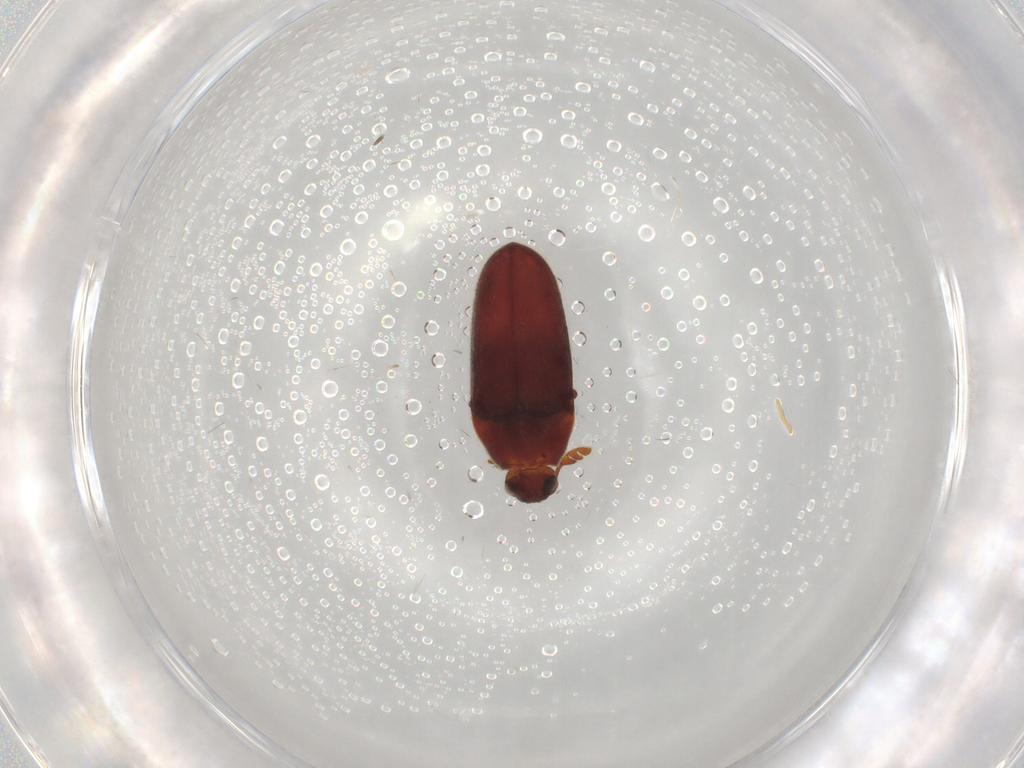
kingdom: Animalia
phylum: Arthropoda
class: Insecta
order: Coleoptera
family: Throscidae
